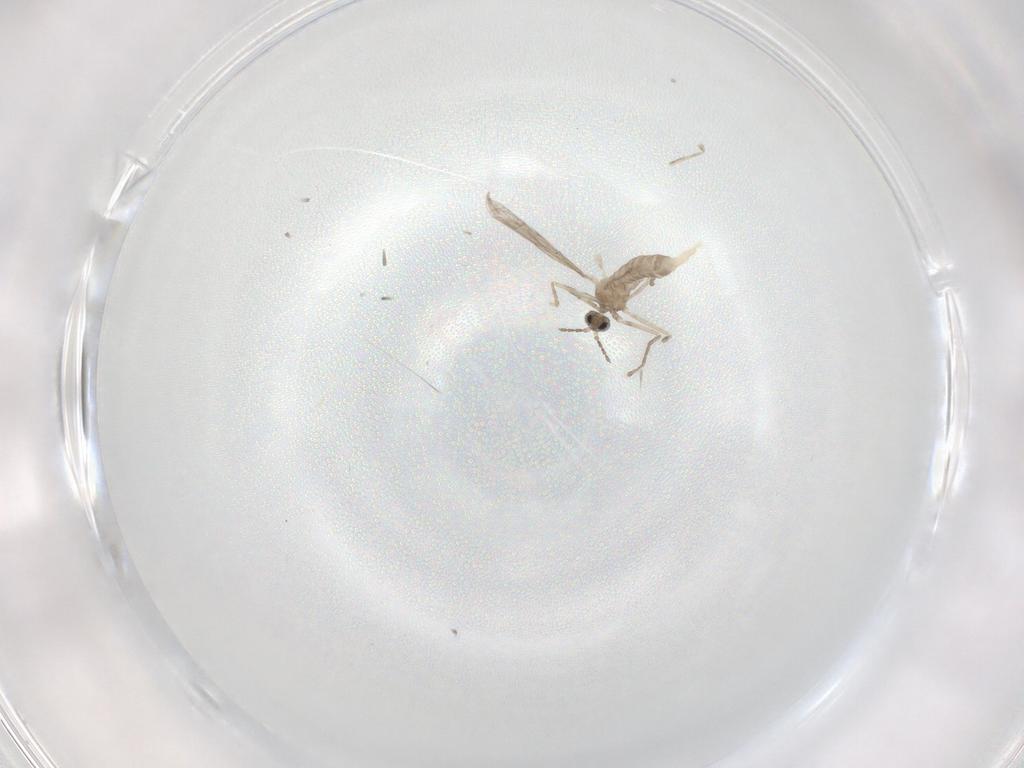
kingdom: Animalia
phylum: Arthropoda
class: Insecta
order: Diptera
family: Cecidomyiidae
